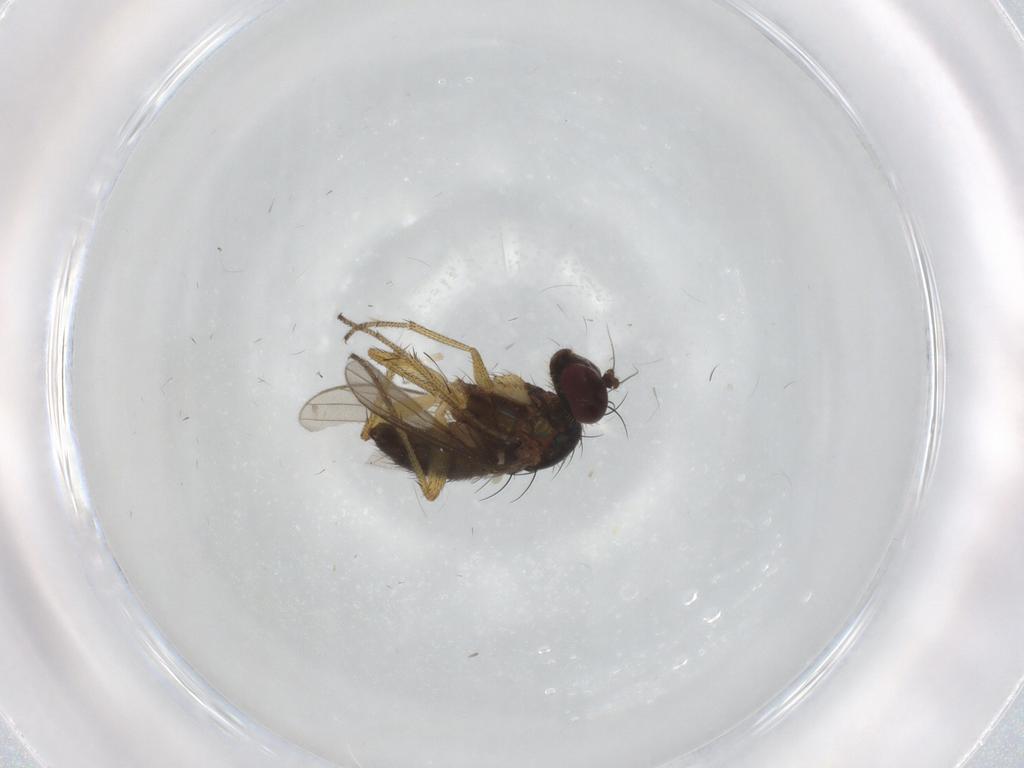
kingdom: Animalia
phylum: Arthropoda
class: Insecta
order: Diptera
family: Dolichopodidae
